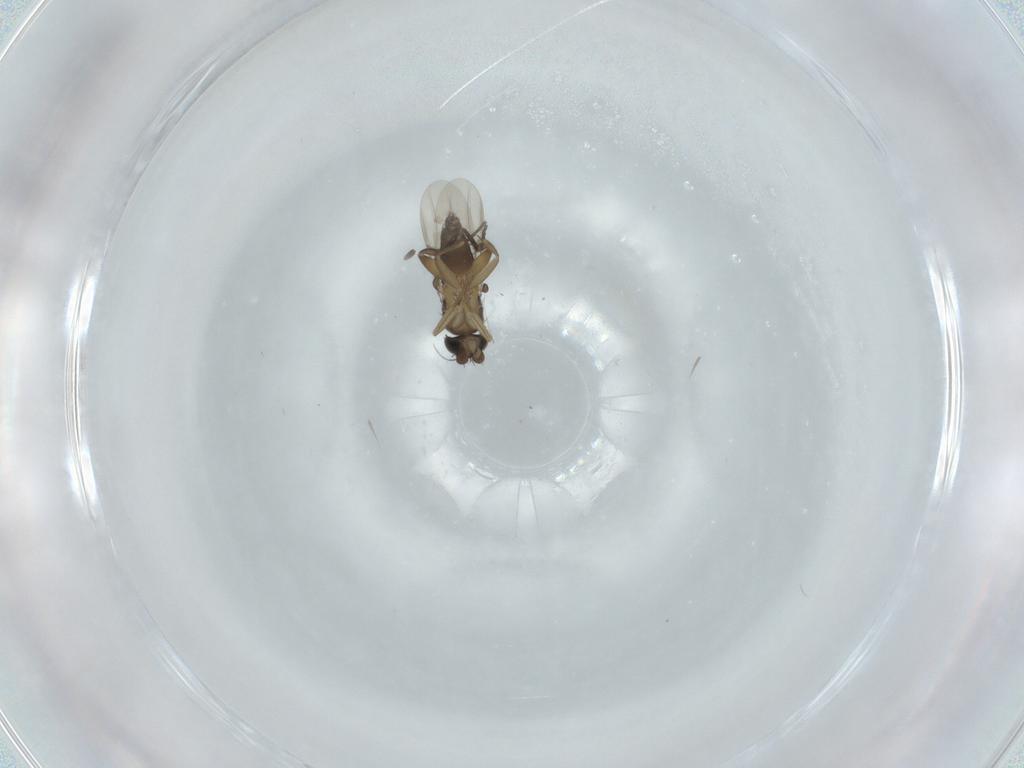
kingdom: Animalia
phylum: Arthropoda
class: Insecta
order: Diptera
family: Phoridae
